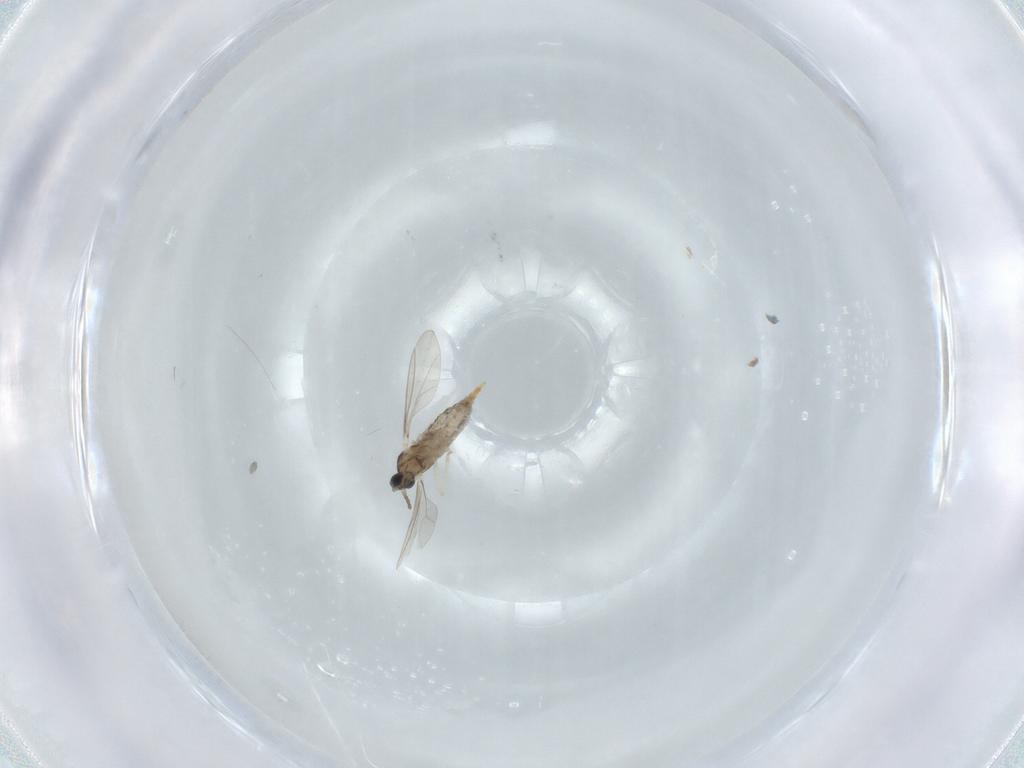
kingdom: Animalia
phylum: Arthropoda
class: Insecta
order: Diptera
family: Cecidomyiidae
